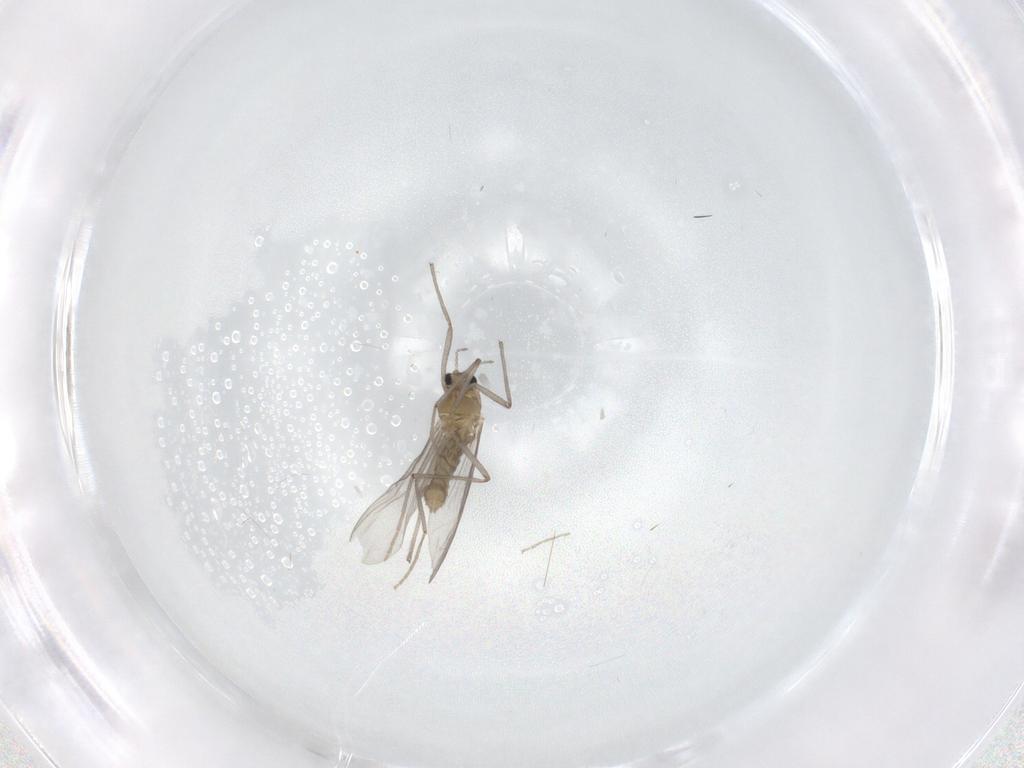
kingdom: Animalia
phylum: Arthropoda
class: Insecta
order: Diptera
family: Chironomidae
